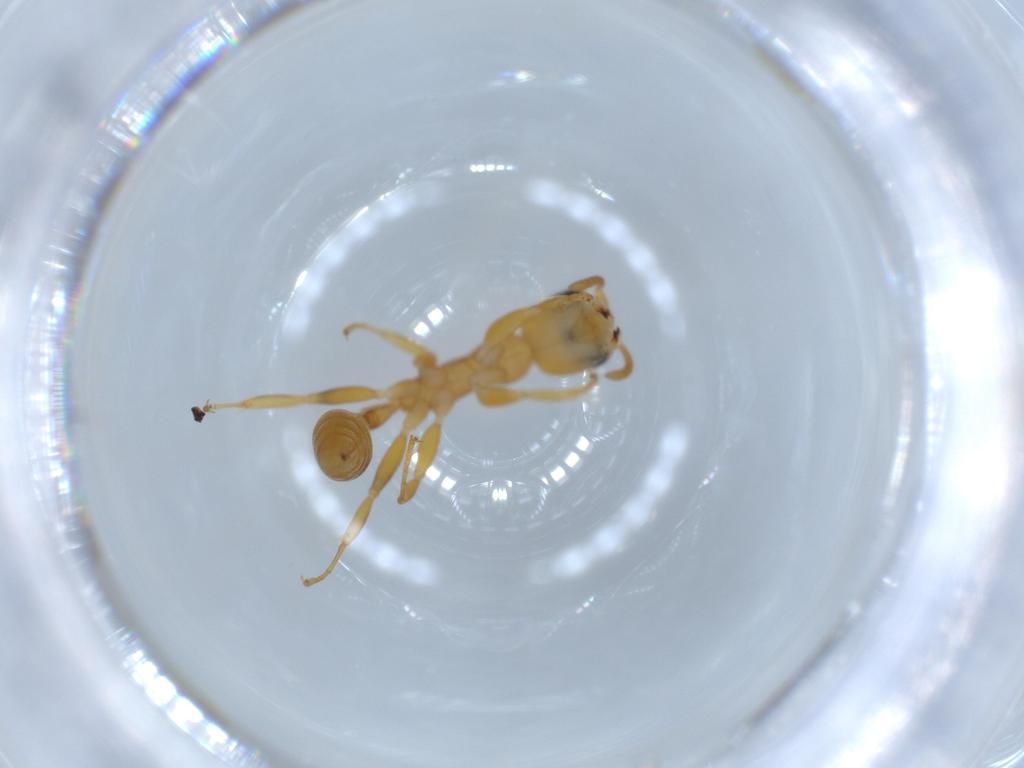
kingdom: Animalia
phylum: Arthropoda
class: Insecta
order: Hymenoptera
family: Formicidae
